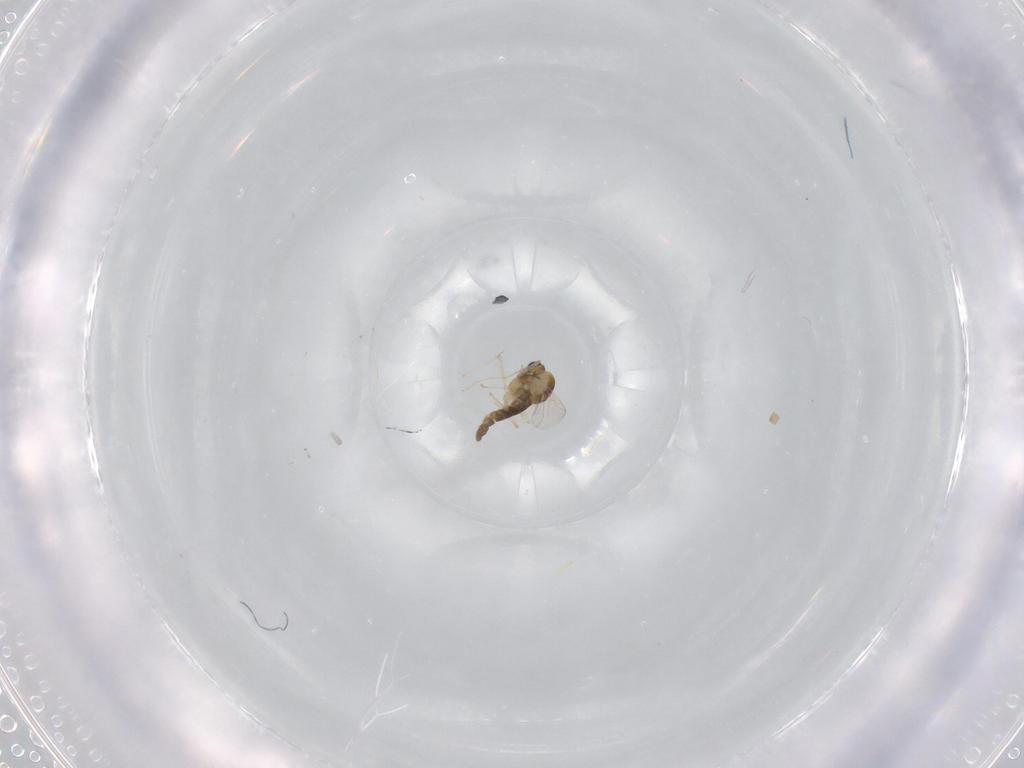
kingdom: Animalia
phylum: Arthropoda
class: Insecta
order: Diptera
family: Chironomidae
